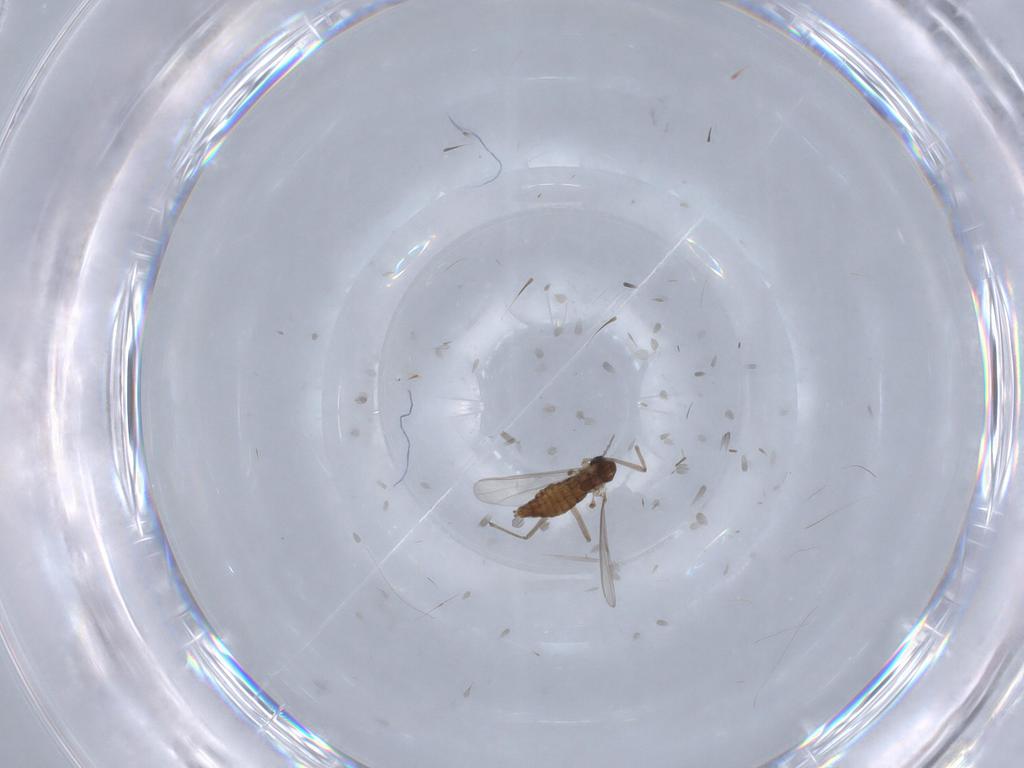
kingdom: Animalia
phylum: Arthropoda
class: Insecta
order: Diptera
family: Chironomidae
